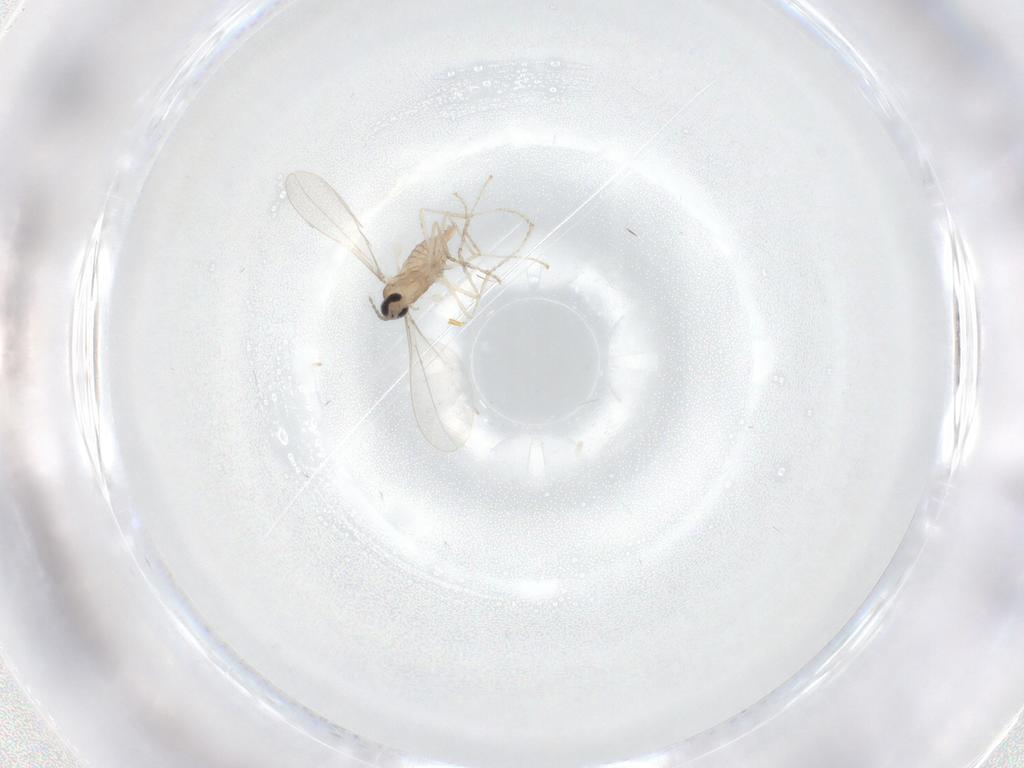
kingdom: Animalia
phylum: Arthropoda
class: Insecta
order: Diptera
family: Cecidomyiidae
